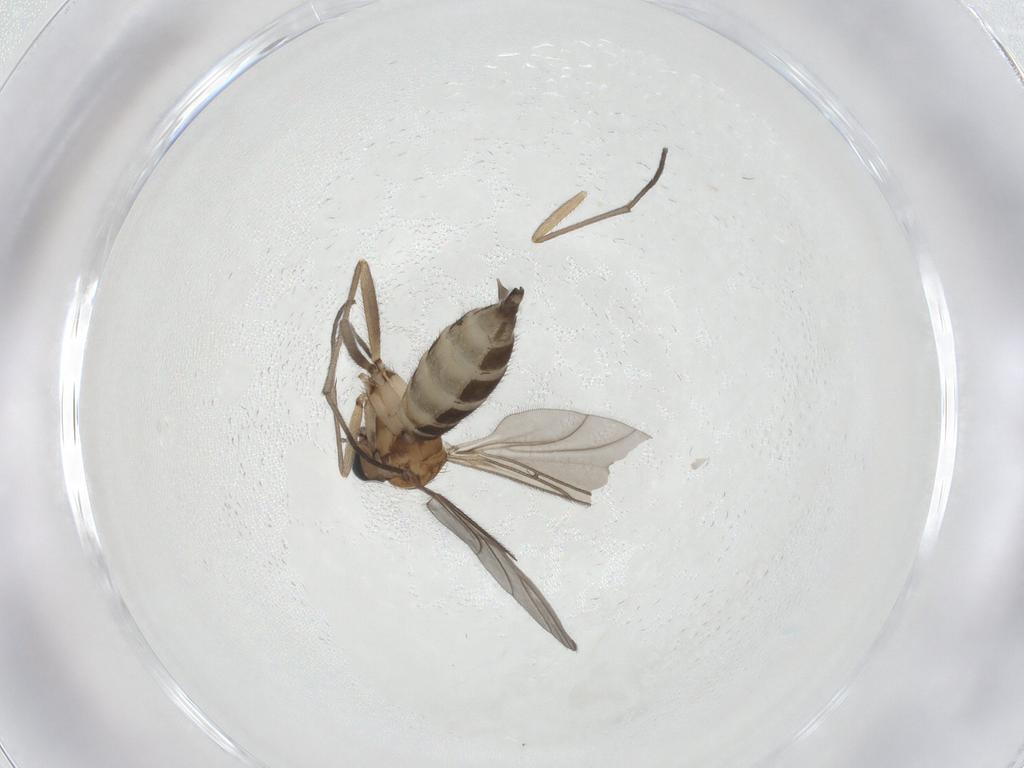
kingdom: Animalia
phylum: Arthropoda
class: Insecta
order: Diptera
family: Sciaridae
